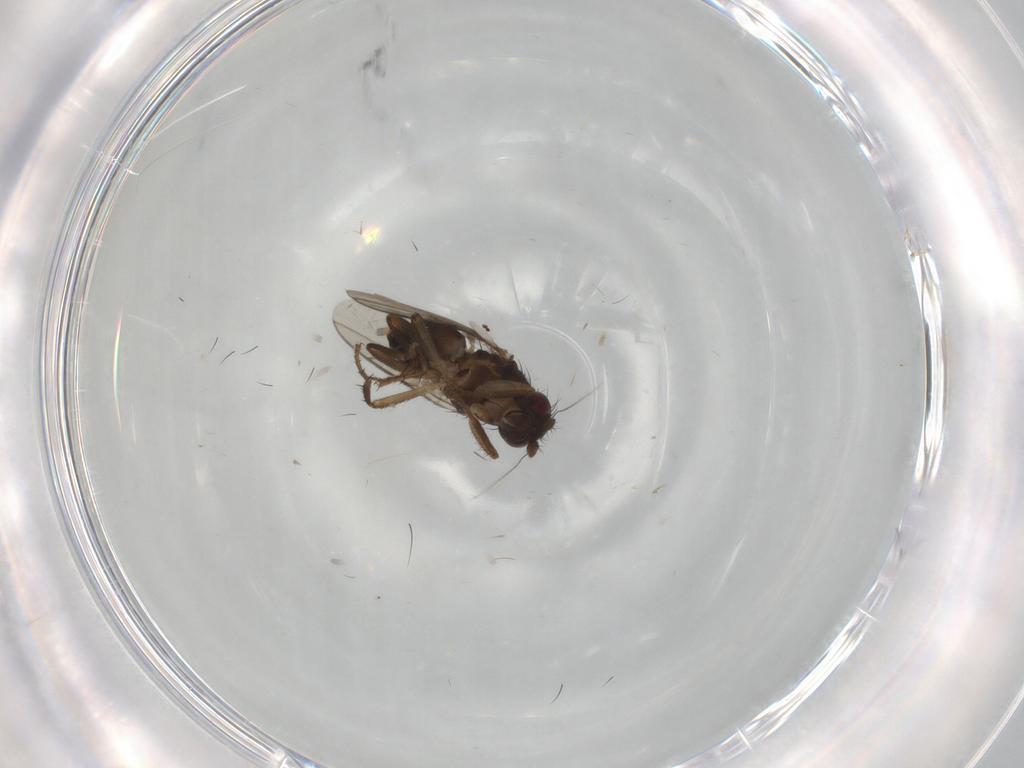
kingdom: Animalia
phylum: Arthropoda
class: Insecta
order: Diptera
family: Sphaeroceridae
